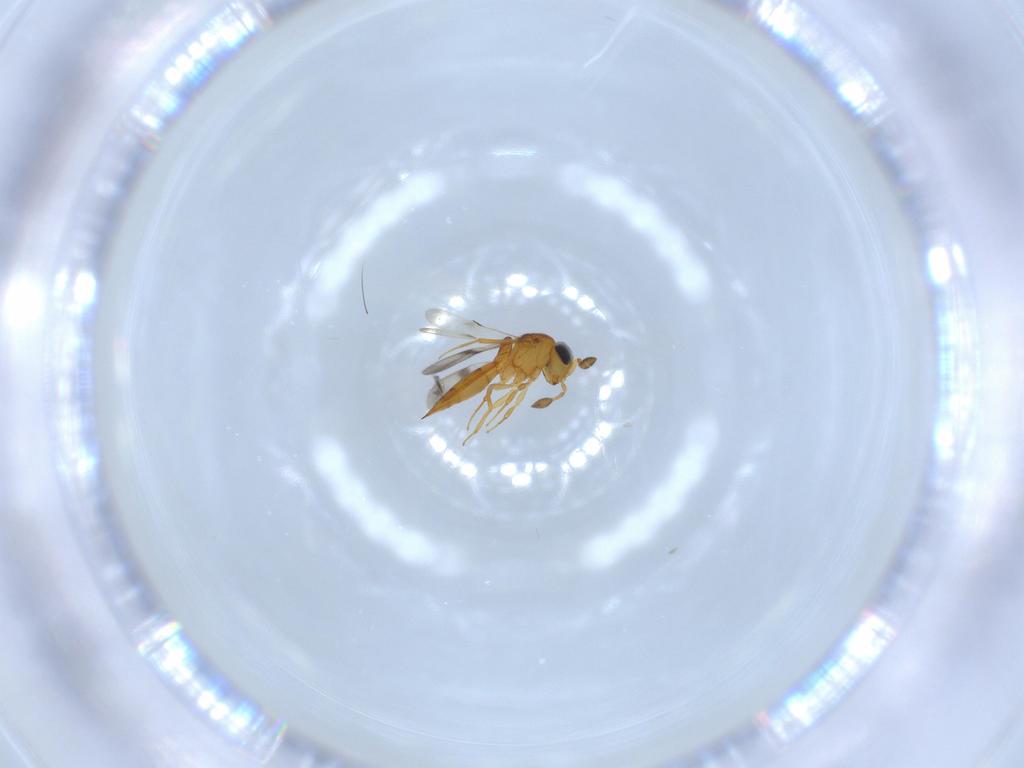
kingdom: Animalia
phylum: Arthropoda
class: Insecta
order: Hymenoptera
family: Scelionidae
